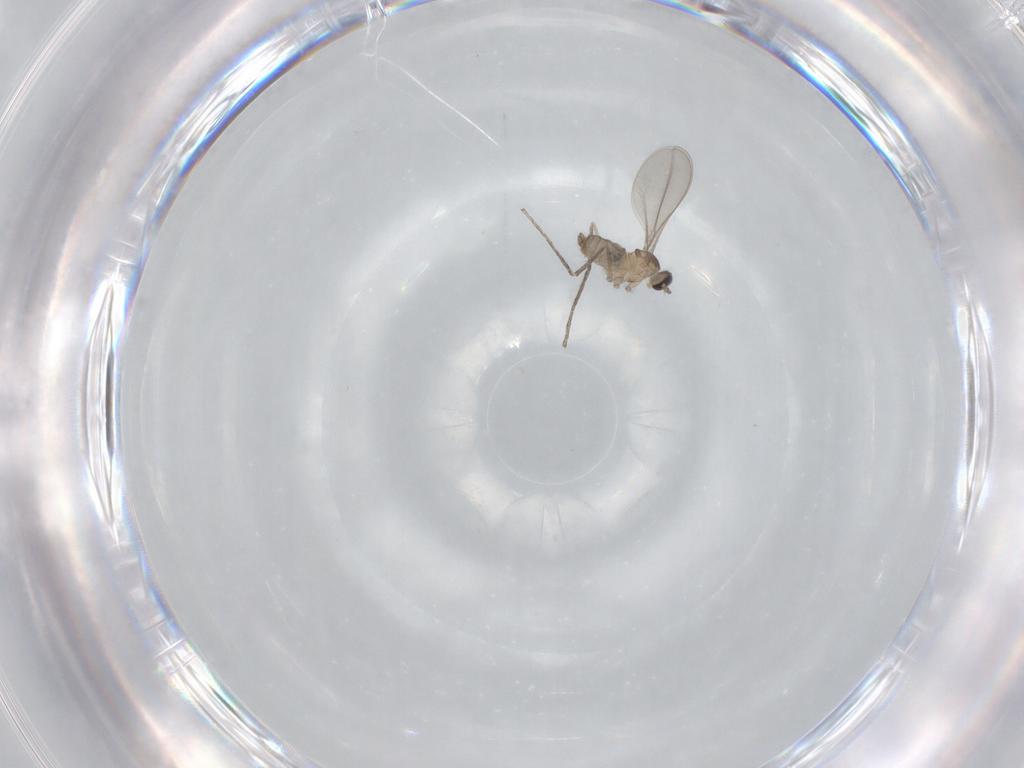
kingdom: Animalia
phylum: Arthropoda
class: Insecta
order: Diptera
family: Cecidomyiidae
